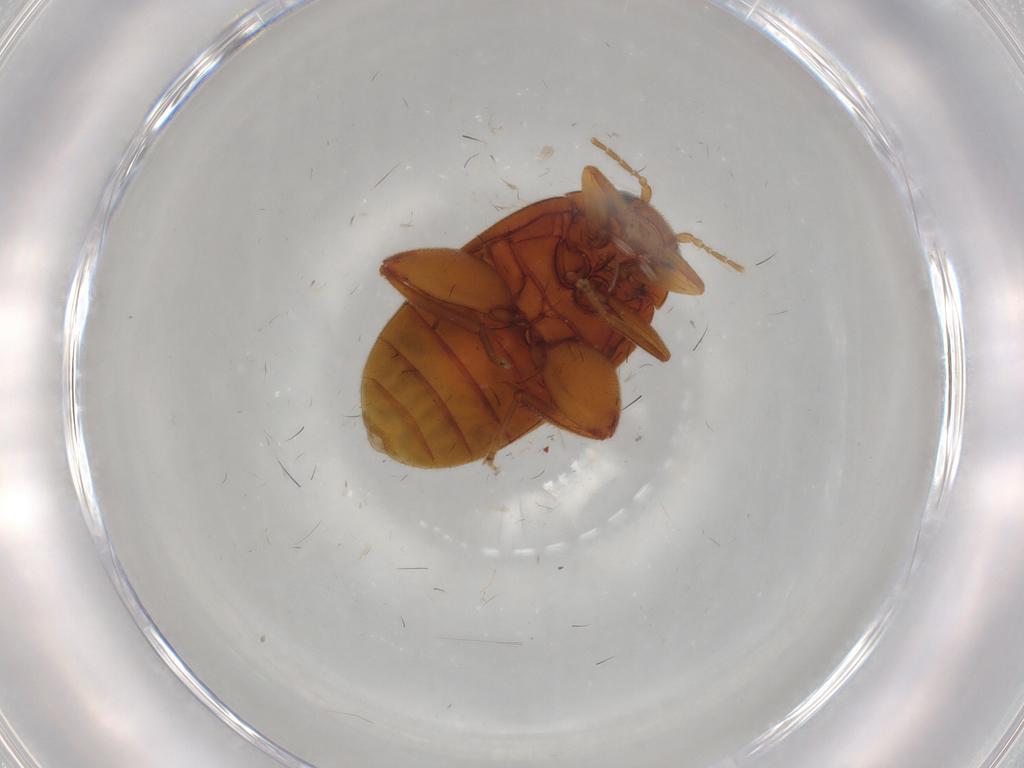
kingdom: Animalia
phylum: Arthropoda
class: Insecta
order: Coleoptera
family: Scirtidae
